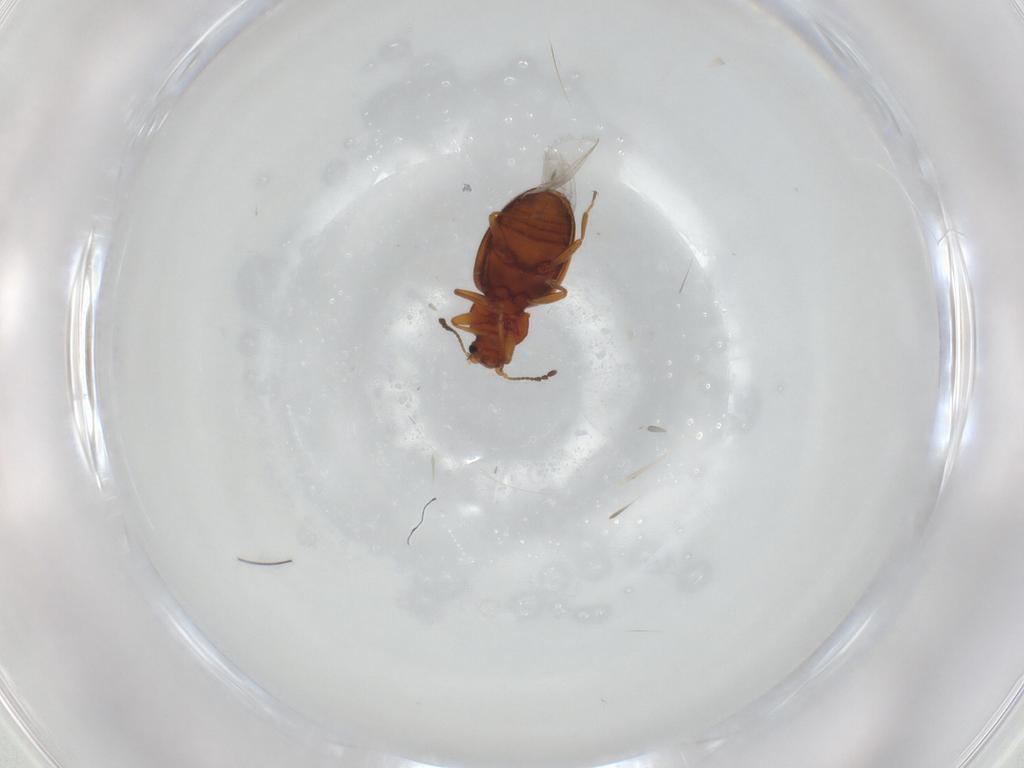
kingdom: Animalia
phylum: Arthropoda
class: Insecta
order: Coleoptera
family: Latridiidae
